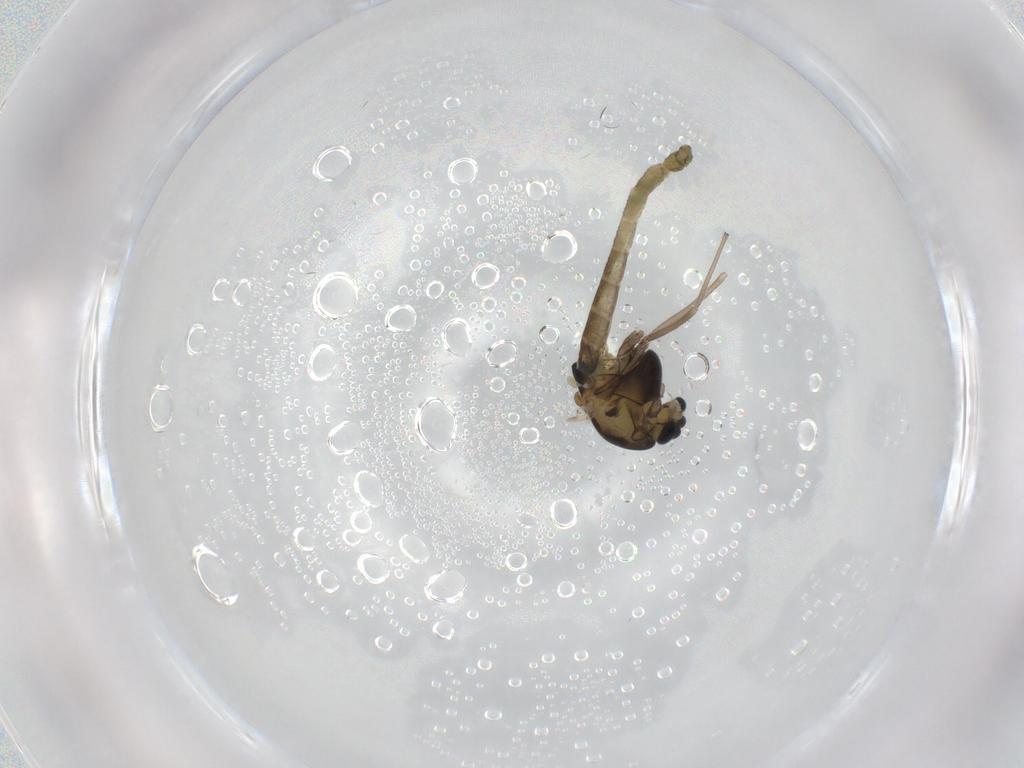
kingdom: Animalia
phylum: Arthropoda
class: Insecta
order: Diptera
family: Chironomidae
